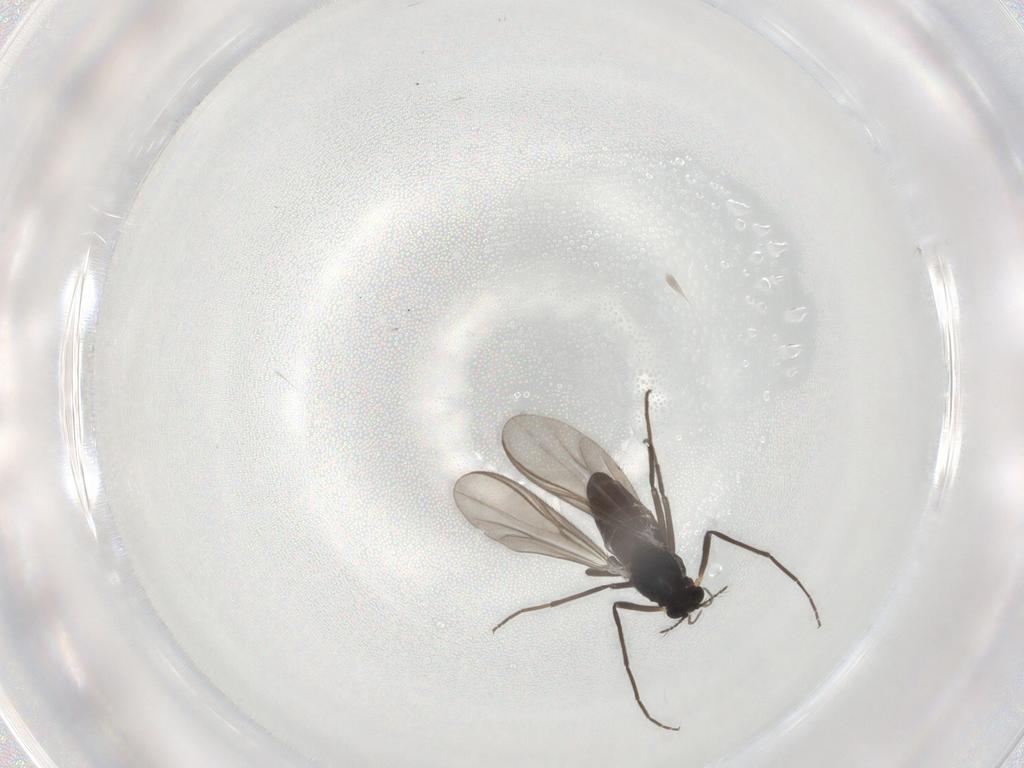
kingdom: Animalia
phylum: Arthropoda
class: Insecta
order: Diptera
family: Chironomidae
